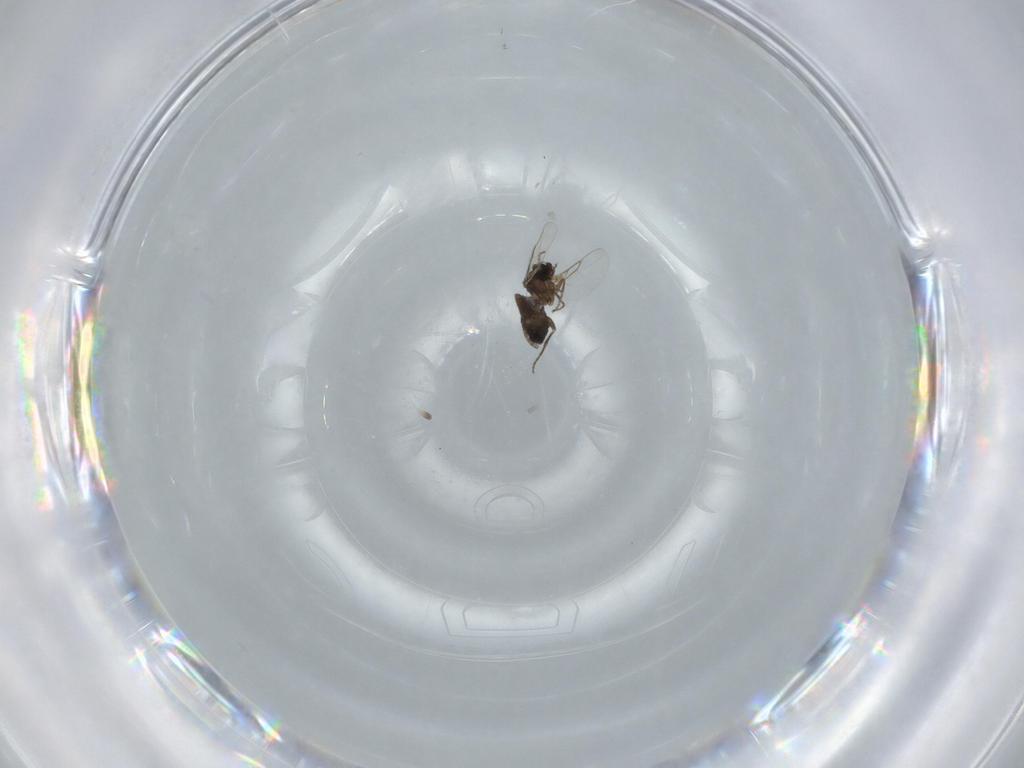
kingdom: Animalia
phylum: Arthropoda
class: Insecta
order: Diptera
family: Phoridae
